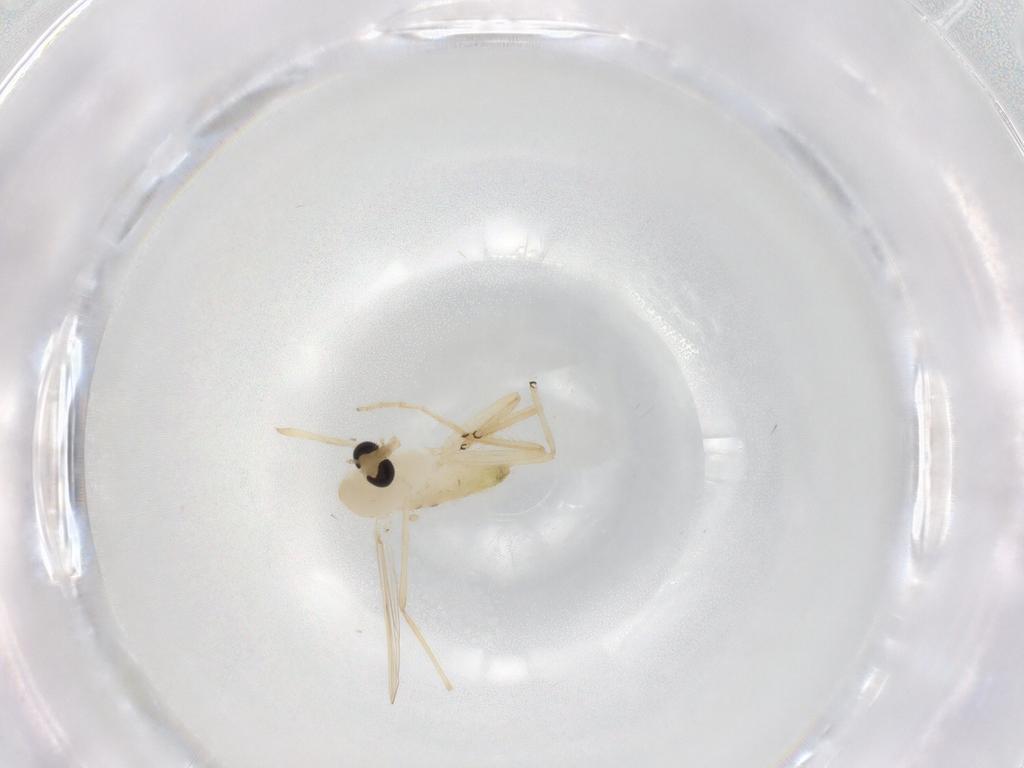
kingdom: Animalia
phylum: Arthropoda
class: Insecta
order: Diptera
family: Chironomidae
